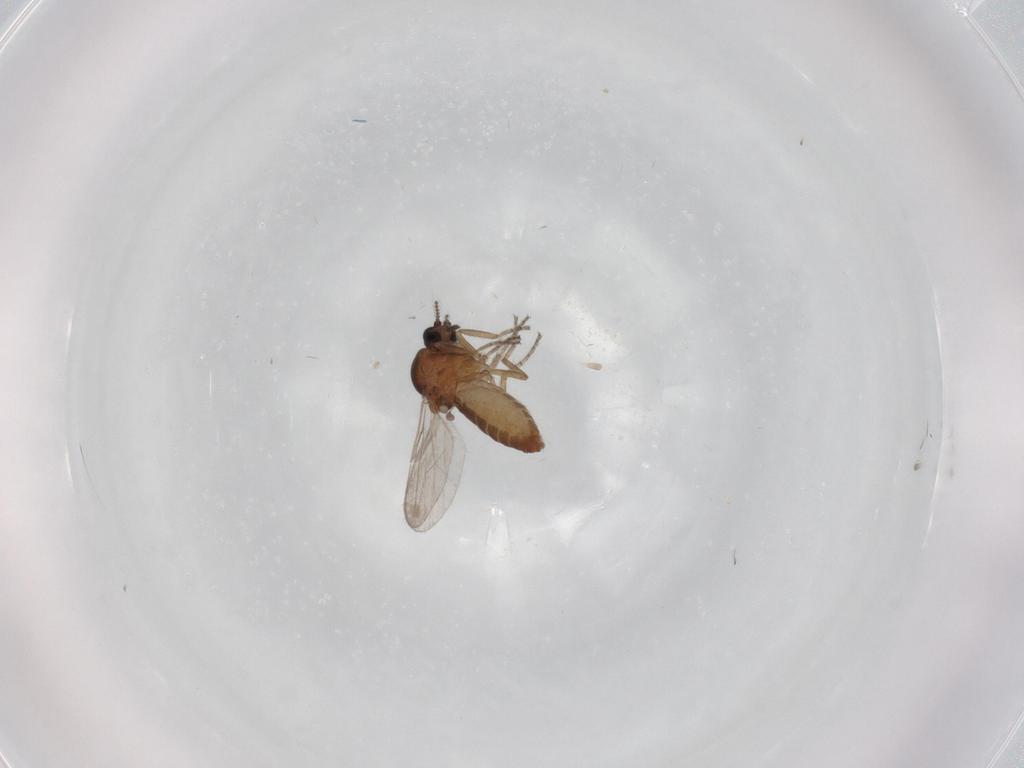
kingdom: Animalia
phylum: Arthropoda
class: Insecta
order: Diptera
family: Ceratopogonidae
